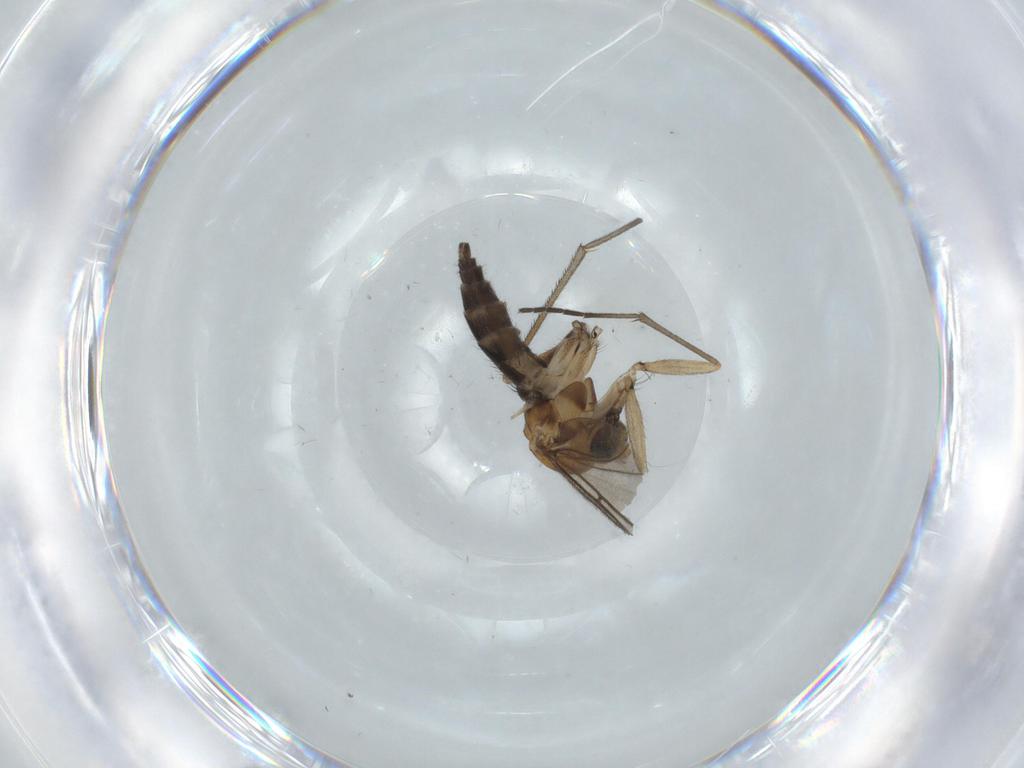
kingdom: Animalia
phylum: Arthropoda
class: Insecta
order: Diptera
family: Sciaridae
